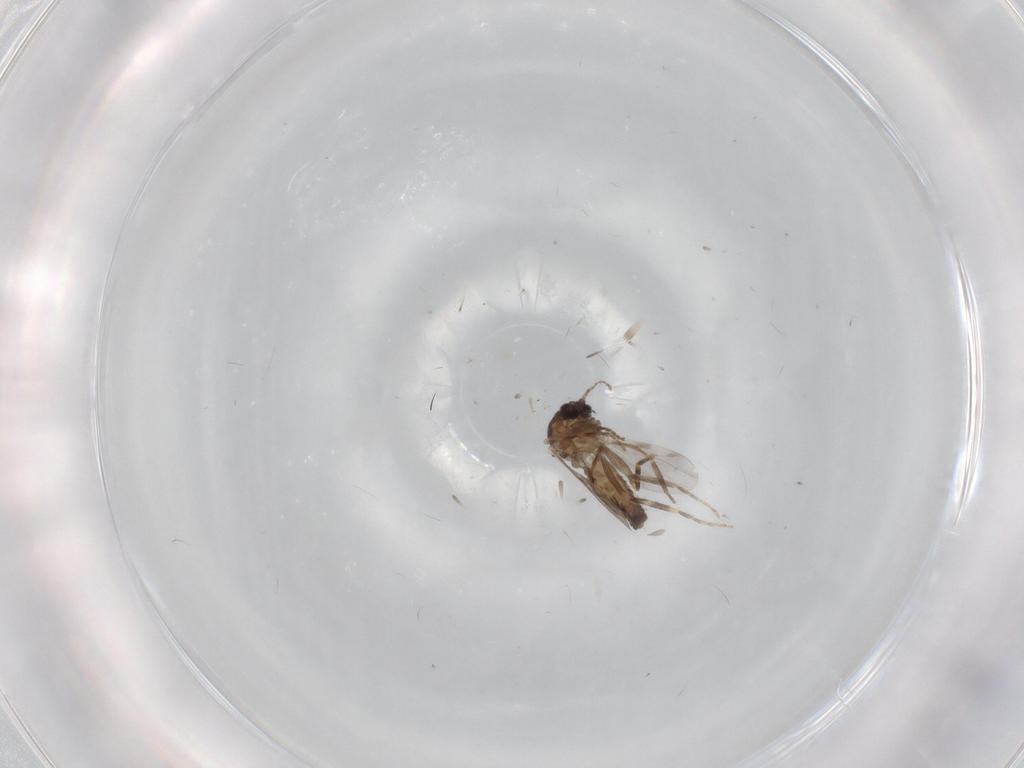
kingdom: Animalia
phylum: Arthropoda
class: Insecta
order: Diptera
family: Ceratopogonidae
